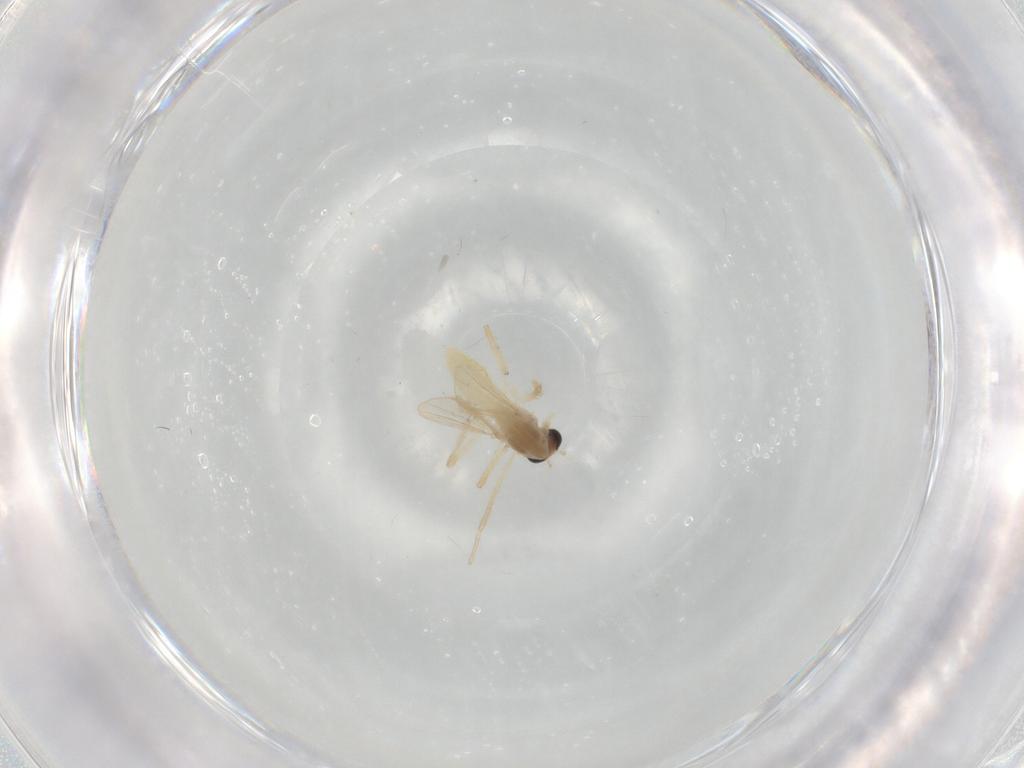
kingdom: Animalia
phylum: Arthropoda
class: Insecta
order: Diptera
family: Chironomidae
